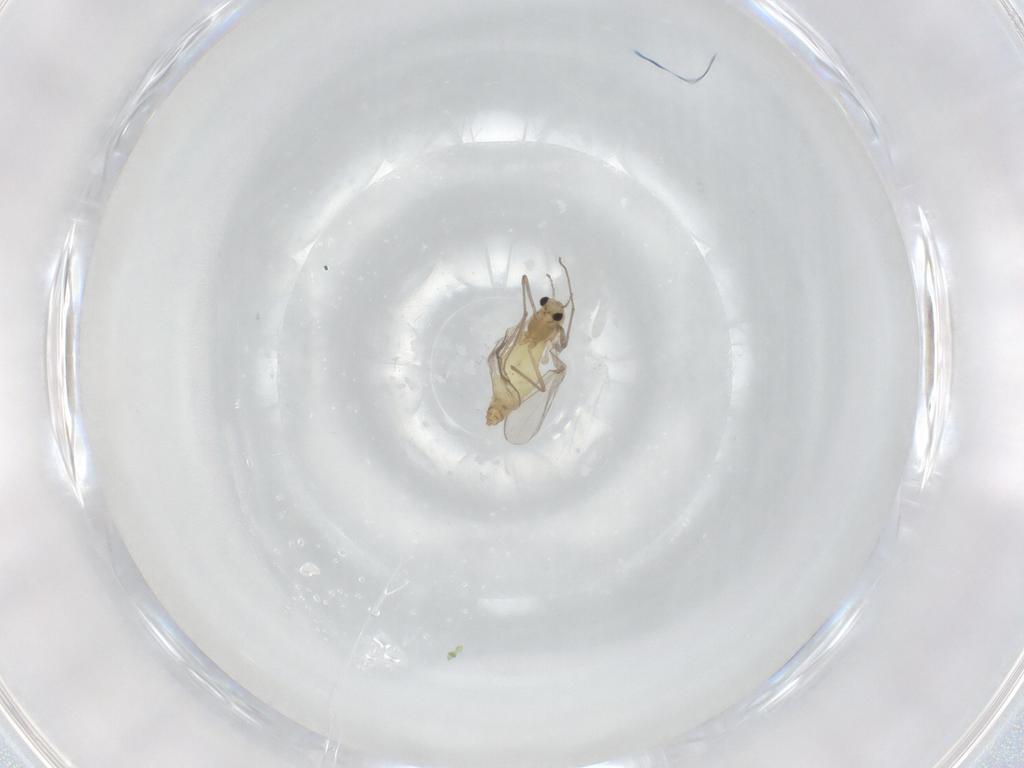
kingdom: Animalia
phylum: Arthropoda
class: Insecta
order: Diptera
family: Chironomidae
